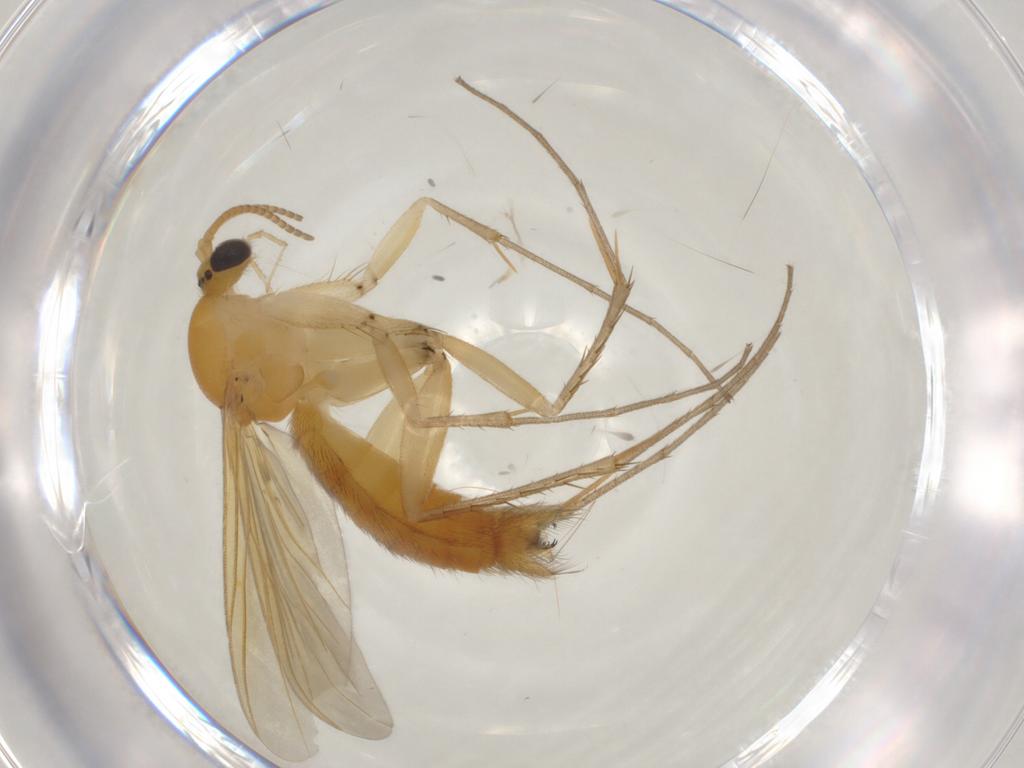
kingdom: Animalia
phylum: Arthropoda
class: Insecta
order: Diptera
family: Mycetophilidae
